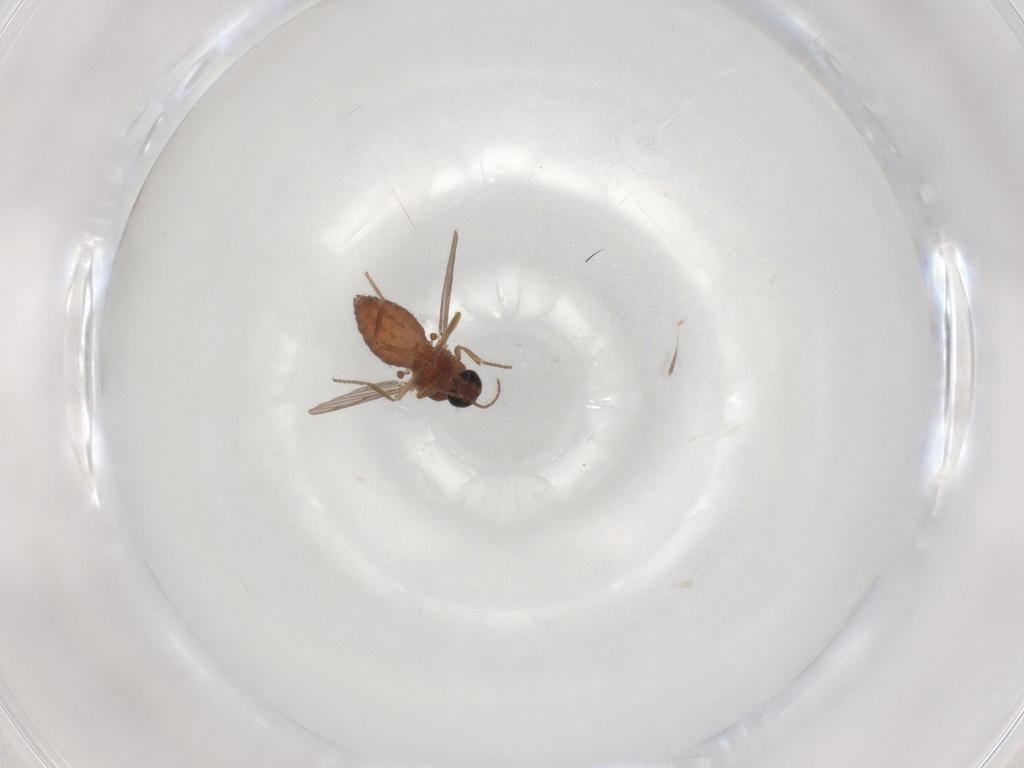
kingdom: Animalia
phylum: Arthropoda
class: Insecta
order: Diptera
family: Ceratopogonidae
